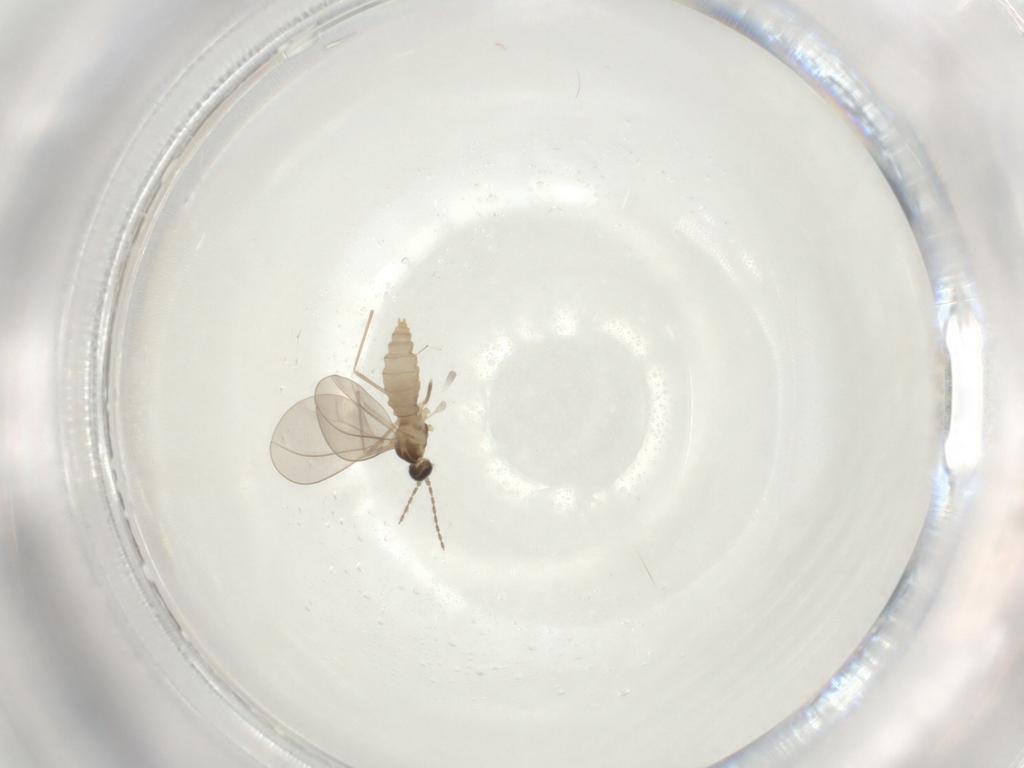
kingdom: Animalia
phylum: Arthropoda
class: Insecta
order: Diptera
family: Cecidomyiidae
